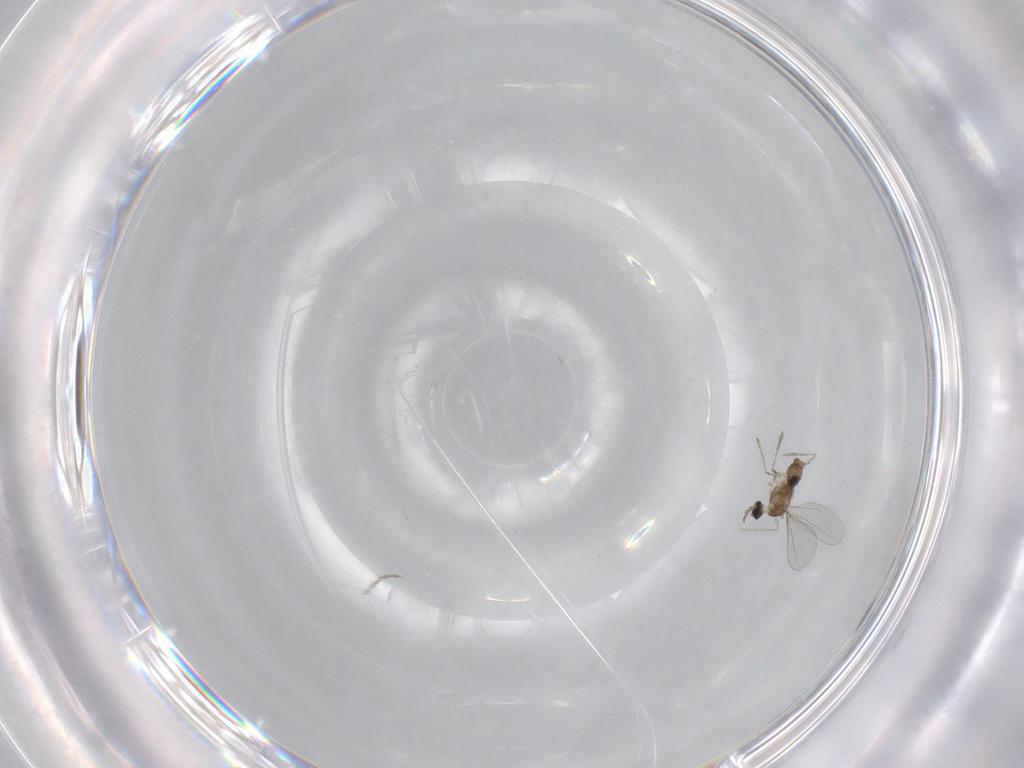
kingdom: Animalia
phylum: Arthropoda
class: Insecta
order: Diptera
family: Chironomidae
